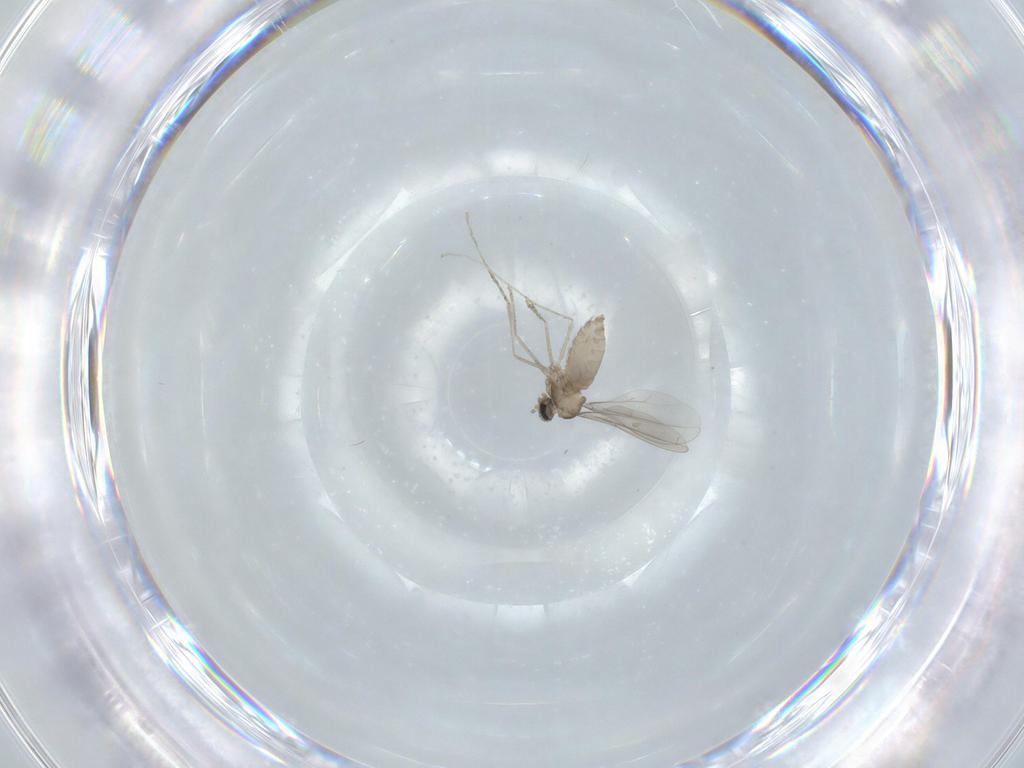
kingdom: Animalia
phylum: Arthropoda
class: Insecta
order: Diptera
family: Cecidomyiidae
